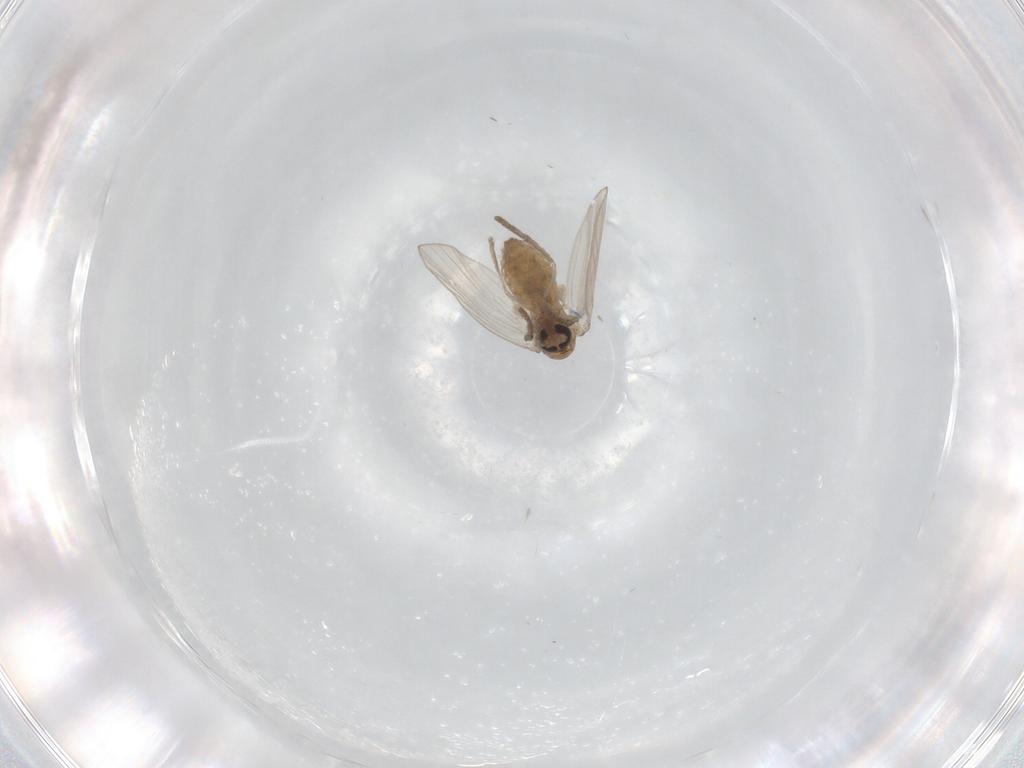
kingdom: Animalia
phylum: Arthropoda
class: Insecta
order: Diptera
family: Psychodidae
